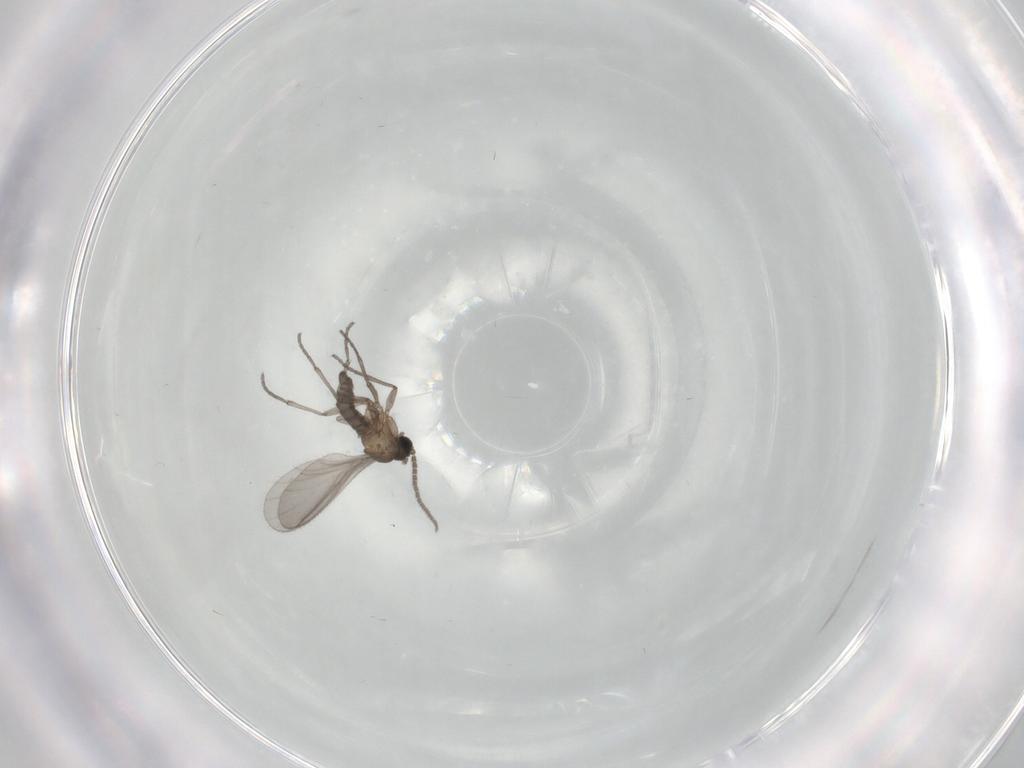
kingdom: Animalia
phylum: Arthropoda
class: Insecta
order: Diptera
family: Sciaridae
